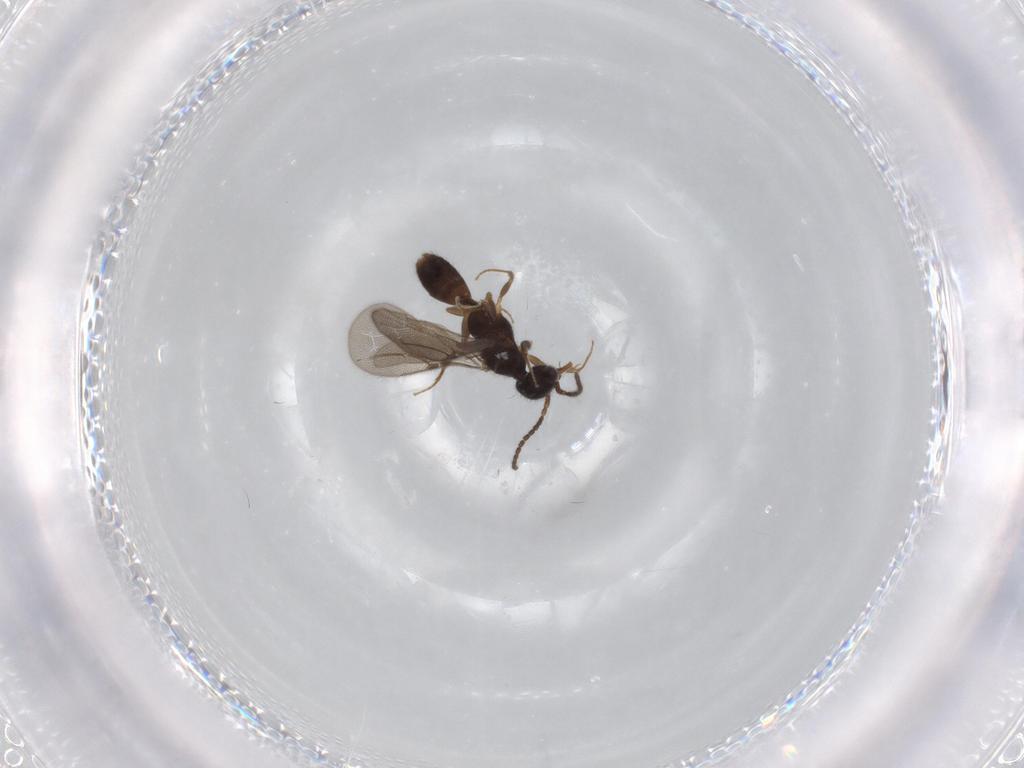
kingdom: Animalia
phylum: Arthropoda
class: Insecta
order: Hymenoptera
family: Bethylidae
